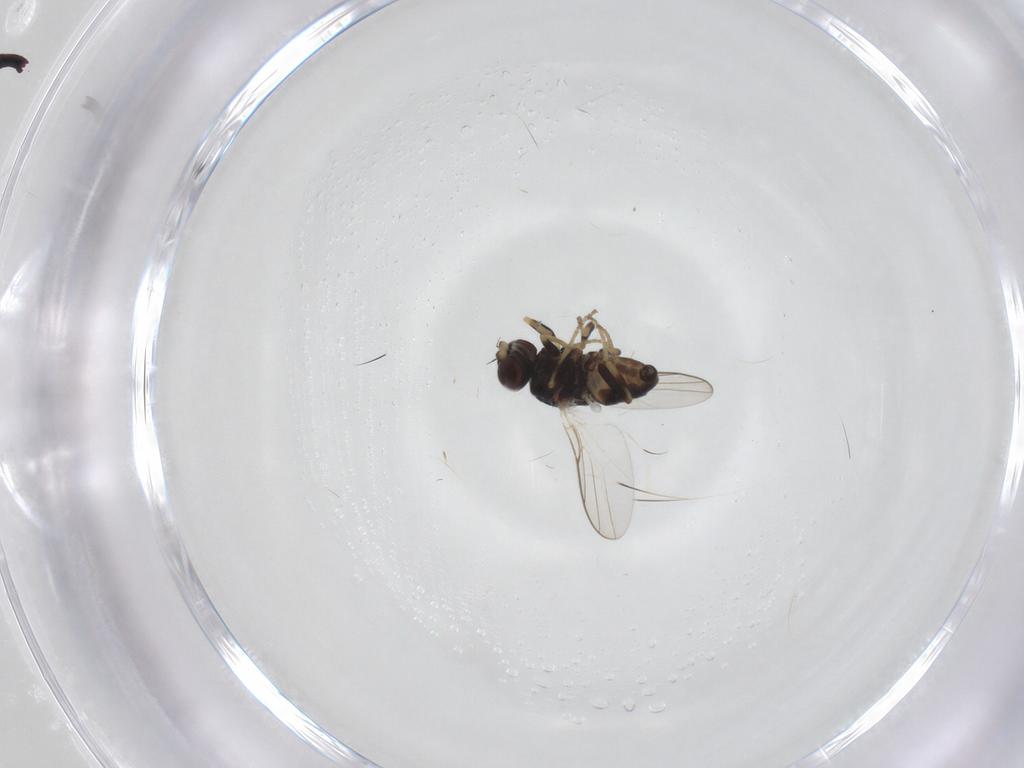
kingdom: Animalia
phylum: Arthropoda
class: Insecta
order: Diptera
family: Chloropidae
